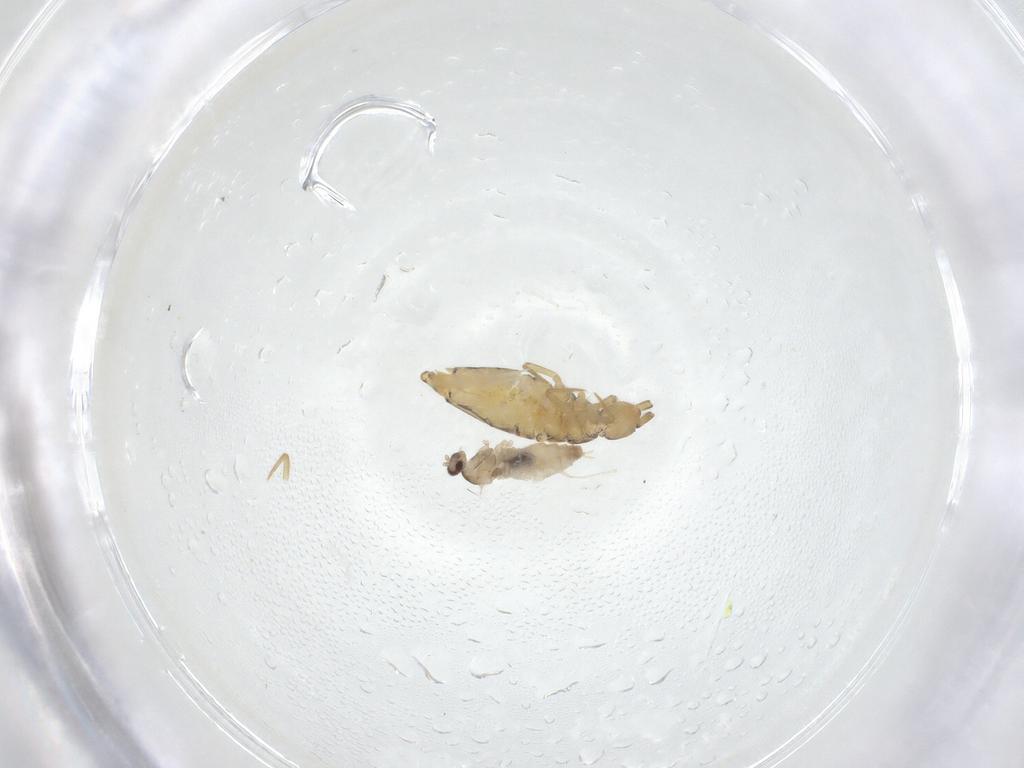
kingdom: Animalia
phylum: Arthropoda
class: Insecta
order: Diptera
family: Cecidomyiidae
